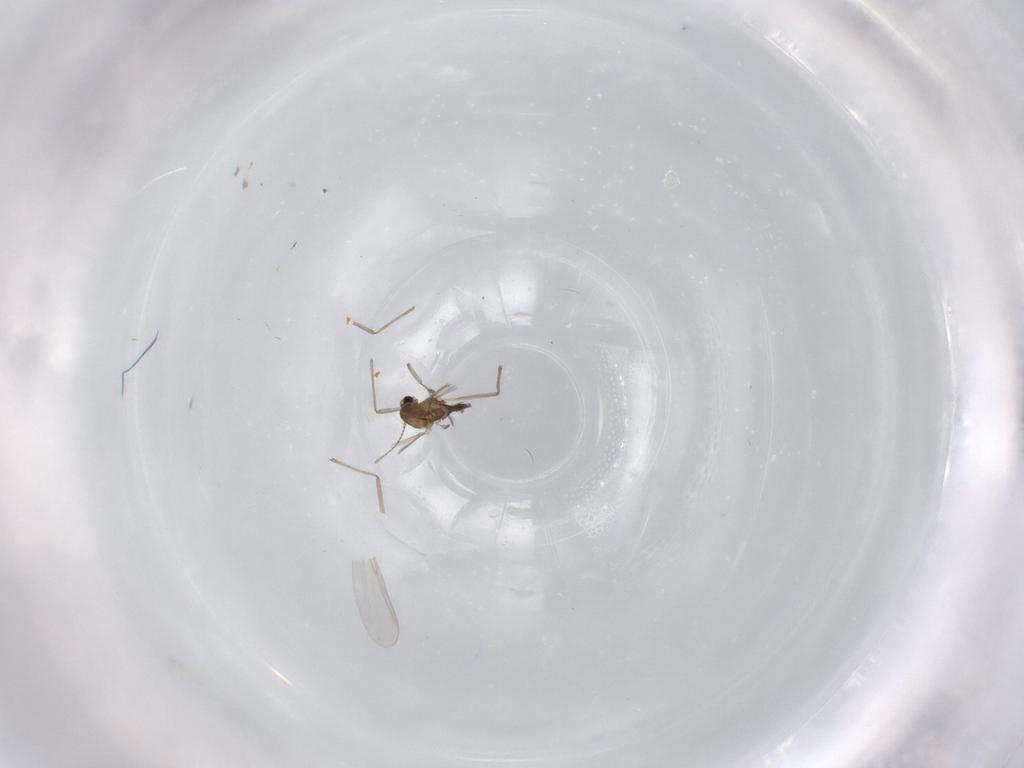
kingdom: Animalia
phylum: Arthropoda
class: Insecta
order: Diptera
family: Chironomidae
